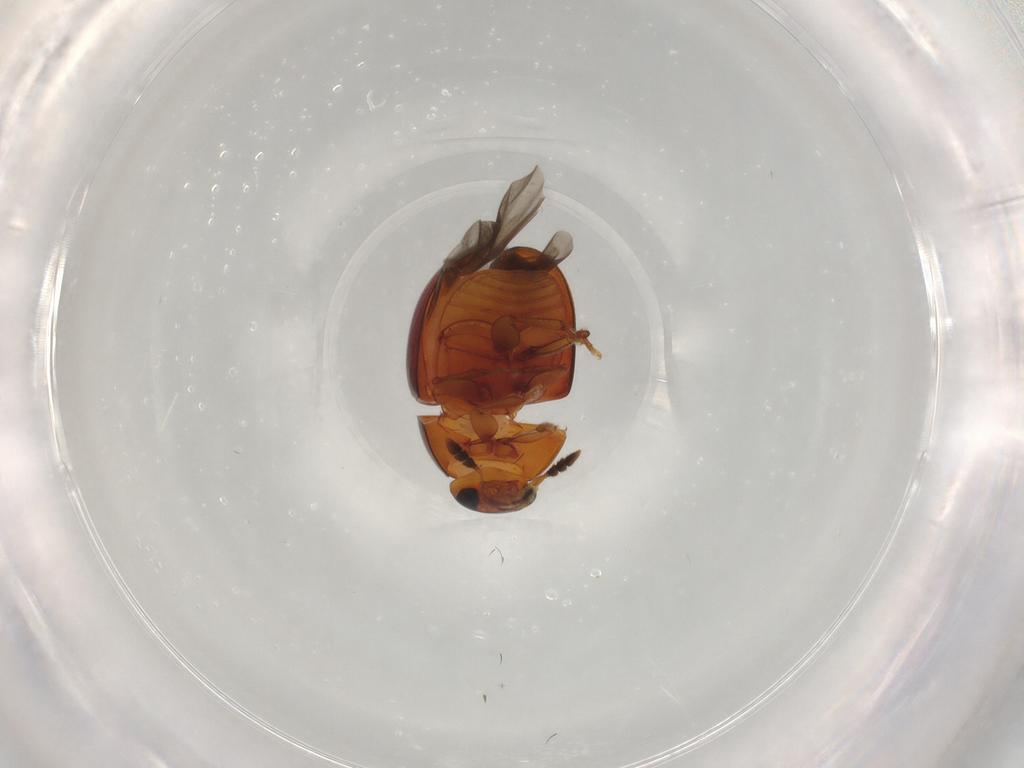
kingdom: Animalia
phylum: Arthropoda
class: Insecta
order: Coleoptera
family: Phalacridae
